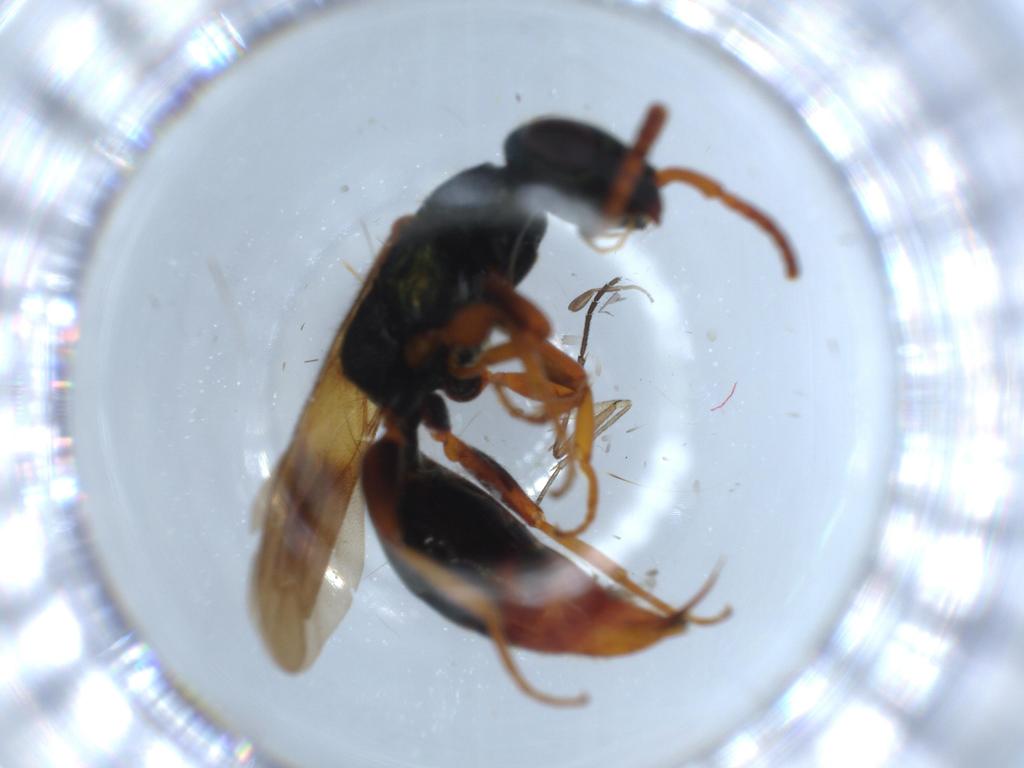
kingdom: Animalia
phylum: Arthropoda
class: Insecta
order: Hymenoptera
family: Bethylidae
